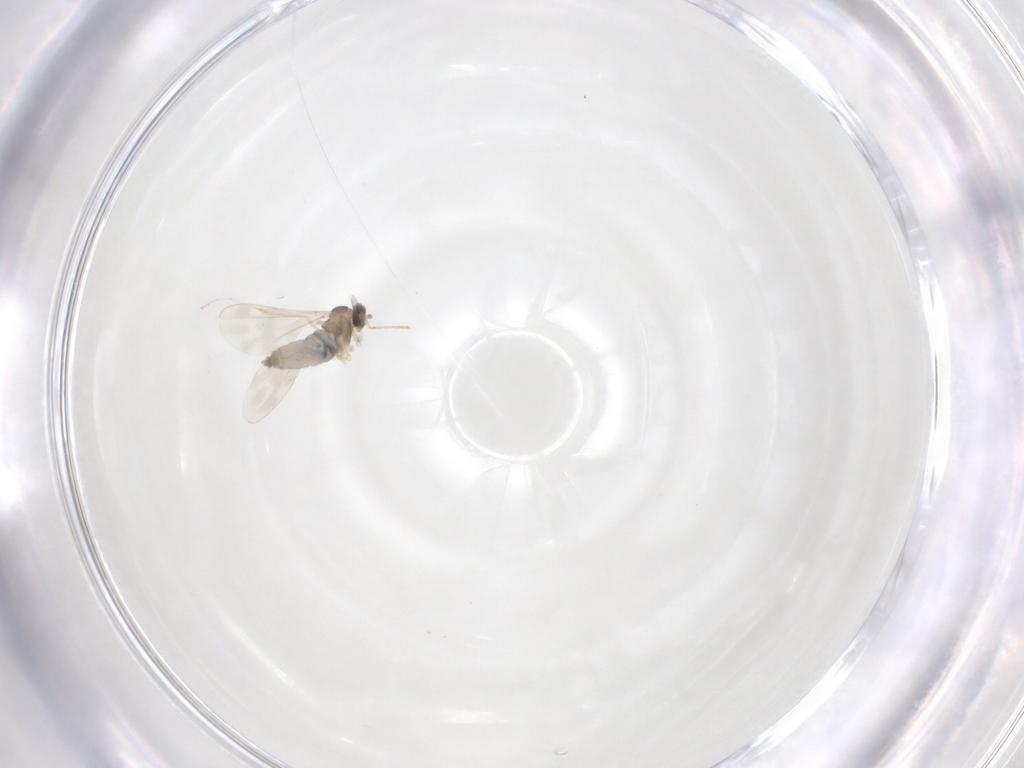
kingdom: Animalia
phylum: Arthropoda
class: Insecta
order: Diptera
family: Cecidomyiidae
